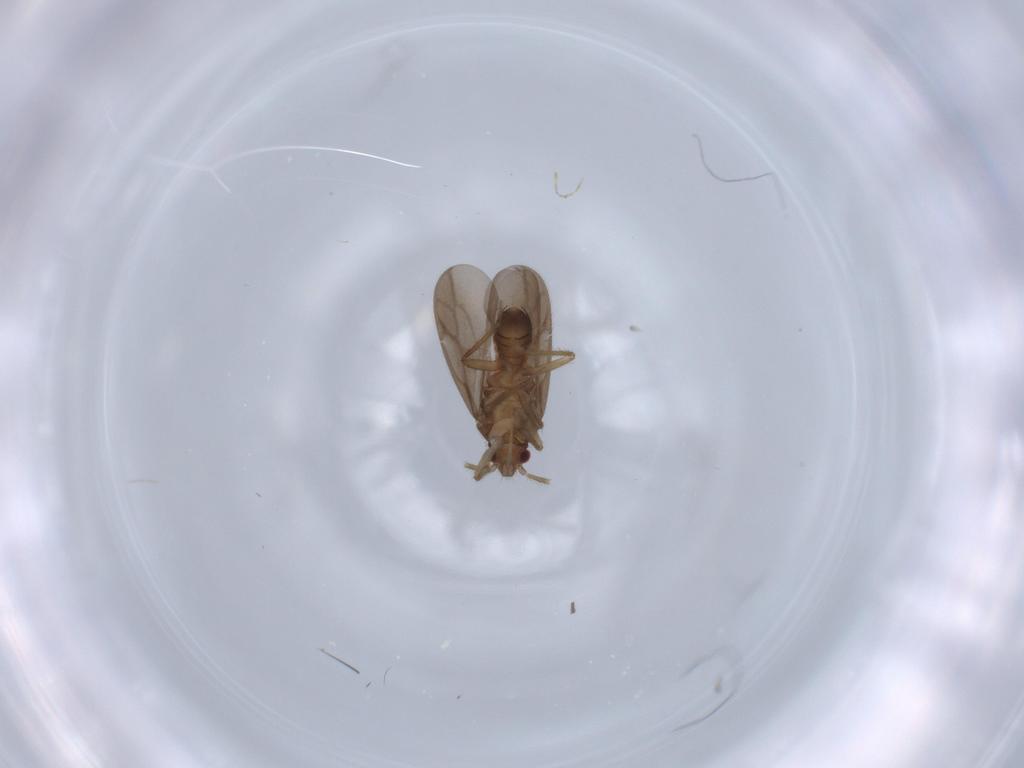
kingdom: Animalia
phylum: Arthropoda
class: Insecta
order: Hemiptera
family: Ceratocombidae
